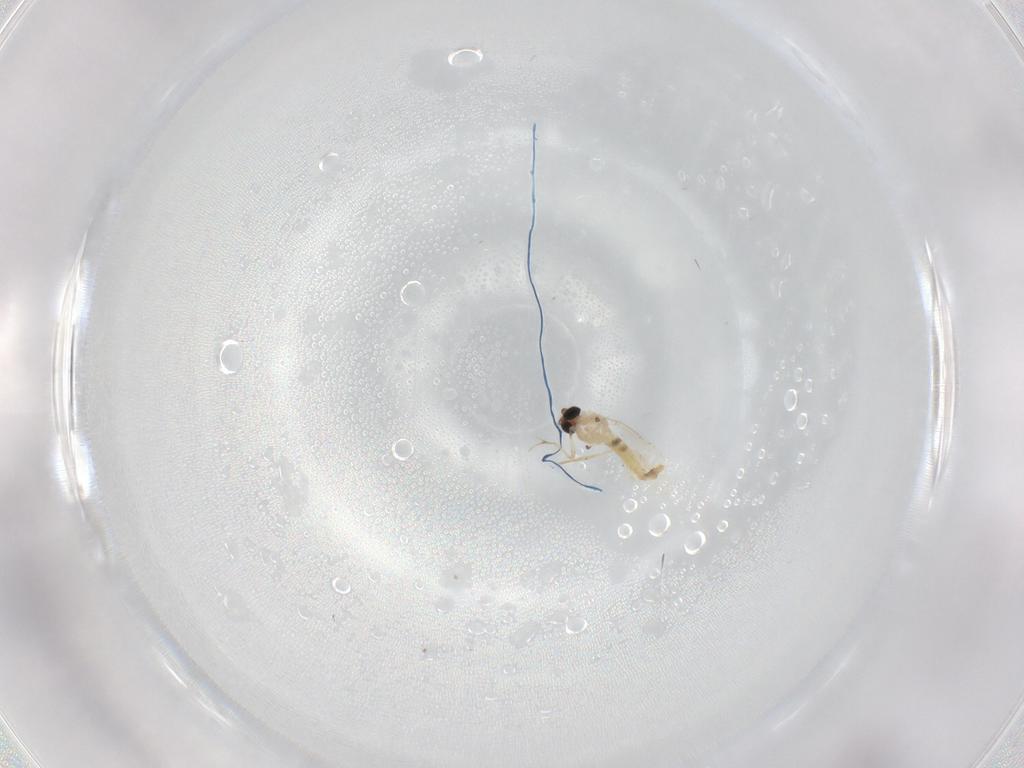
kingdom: Animalia
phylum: Arthropoda
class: Insecta
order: Diptera
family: Chironomidae
